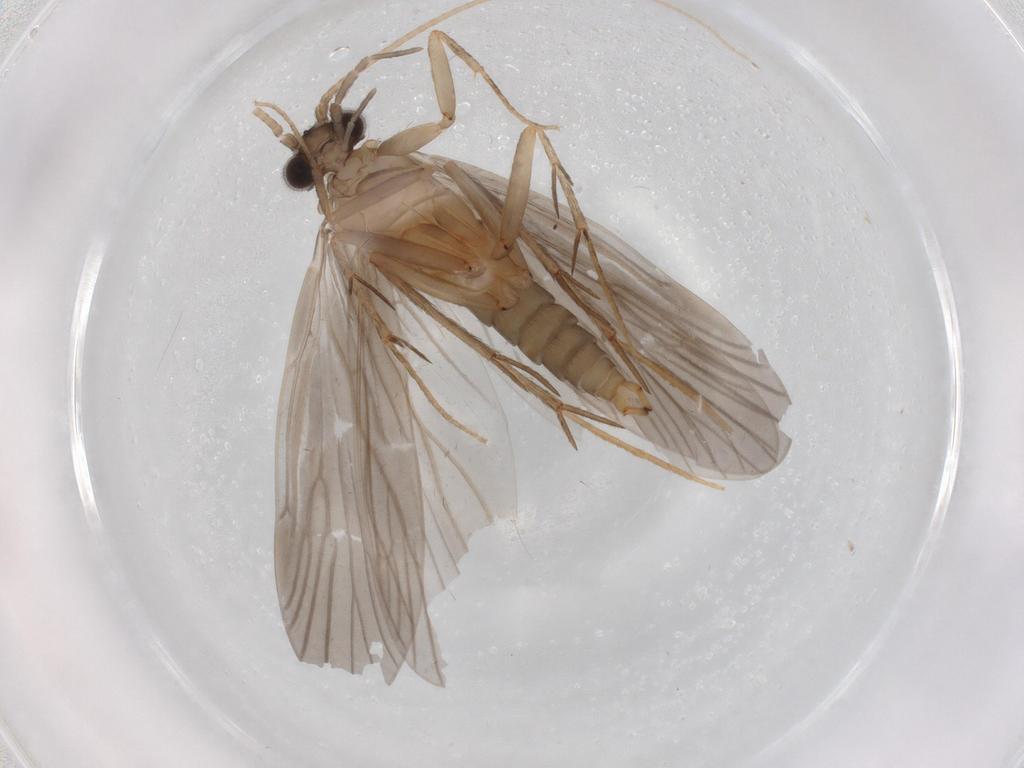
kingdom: Animalia
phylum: Arthropoda
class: Insecta
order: Trichoptera
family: Philopotamidae
